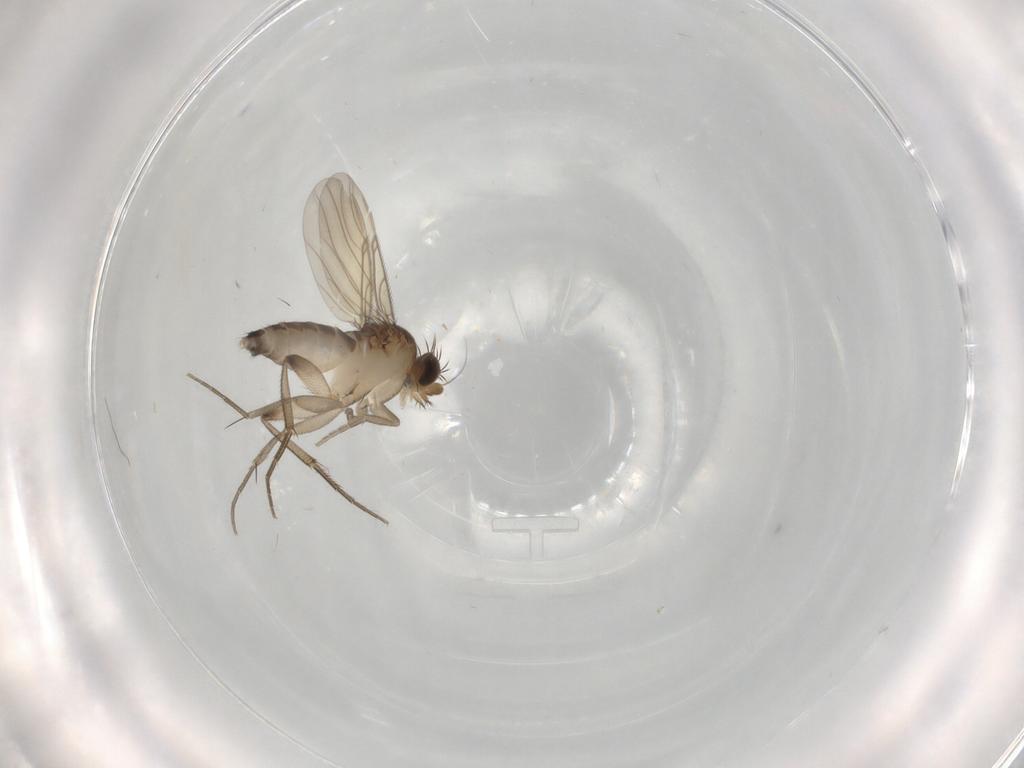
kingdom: Animalia
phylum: Arthropoda
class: Insecta
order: Diptera
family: Phoridae
